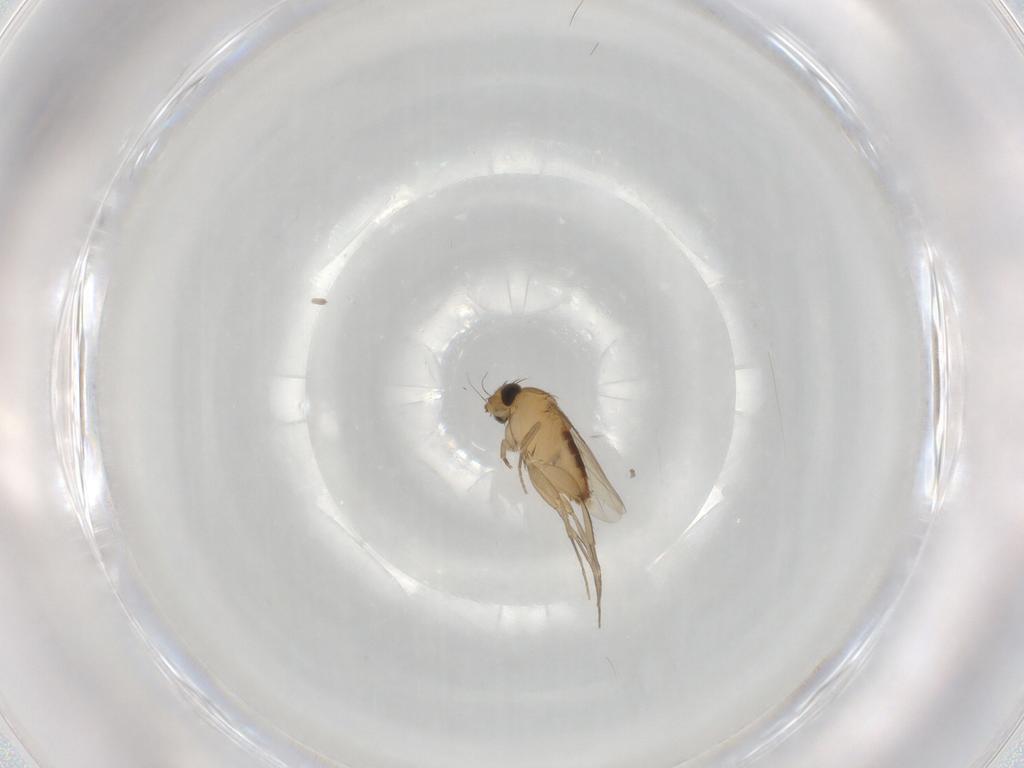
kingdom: Animalia
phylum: Arthropoda
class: Insecta
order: Diptera
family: Phoridae
